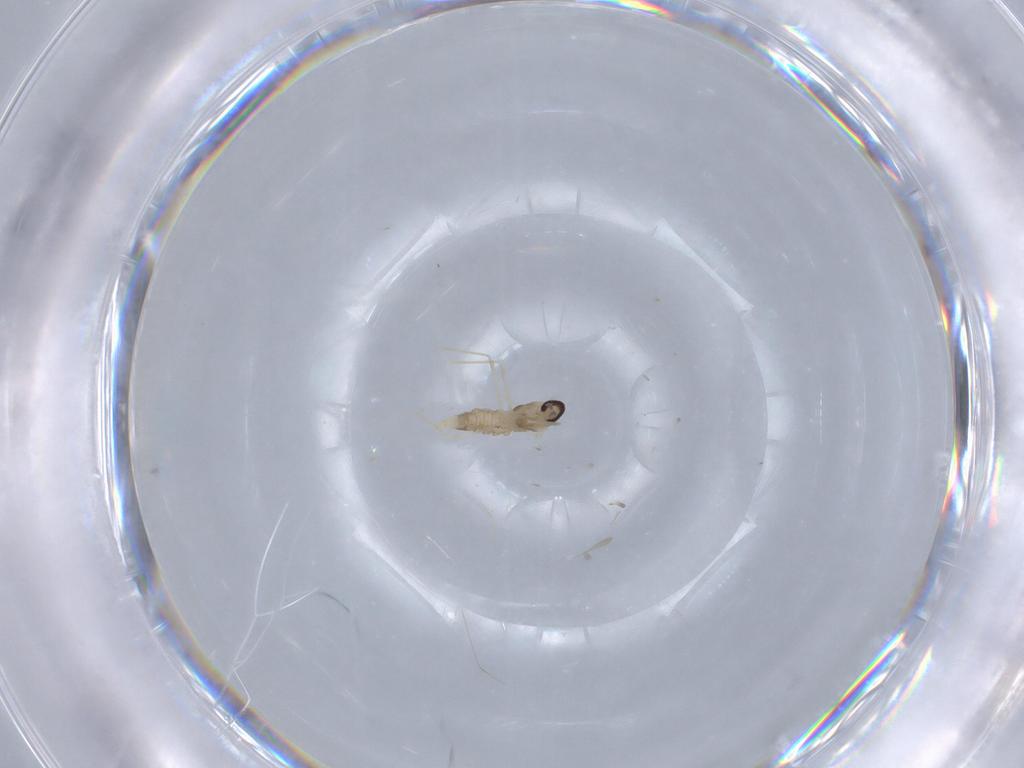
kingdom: Animalia
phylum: Arthropoda
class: Insecta
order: Diptera
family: Cecidomyiidae
